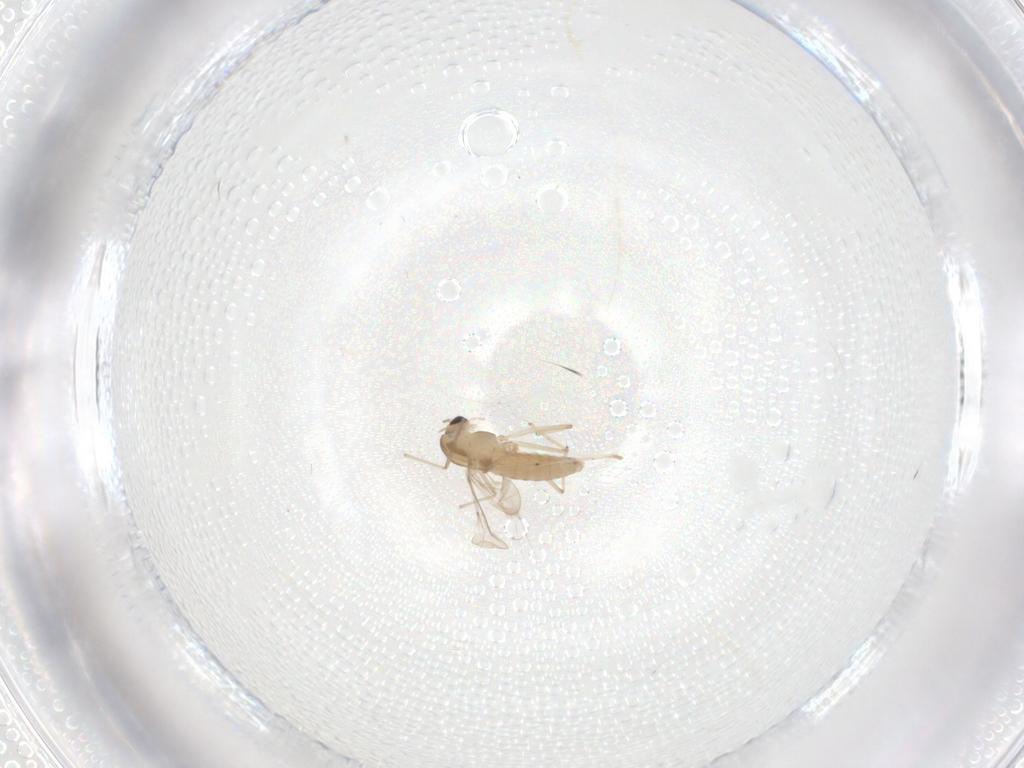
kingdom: Animalia
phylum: Arthropoda
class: Insecta
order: Diptera
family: Chironomidae
